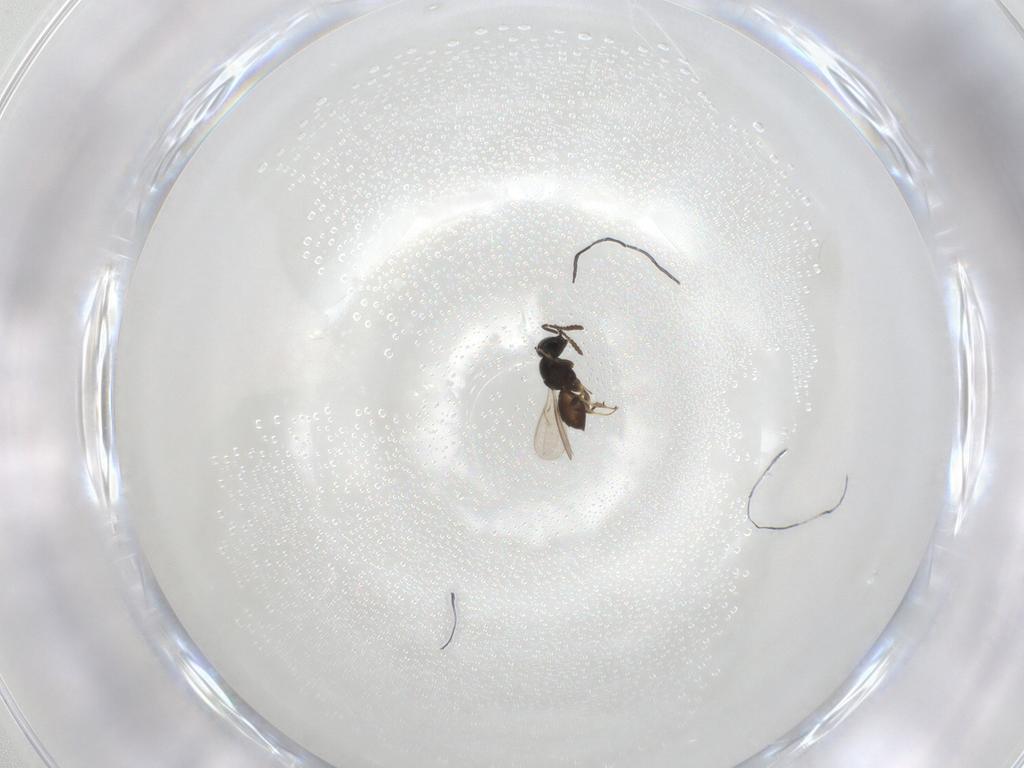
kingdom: Animalia
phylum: Arthropoda
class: Insecta
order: Hymenoptera
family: Scelionidae
